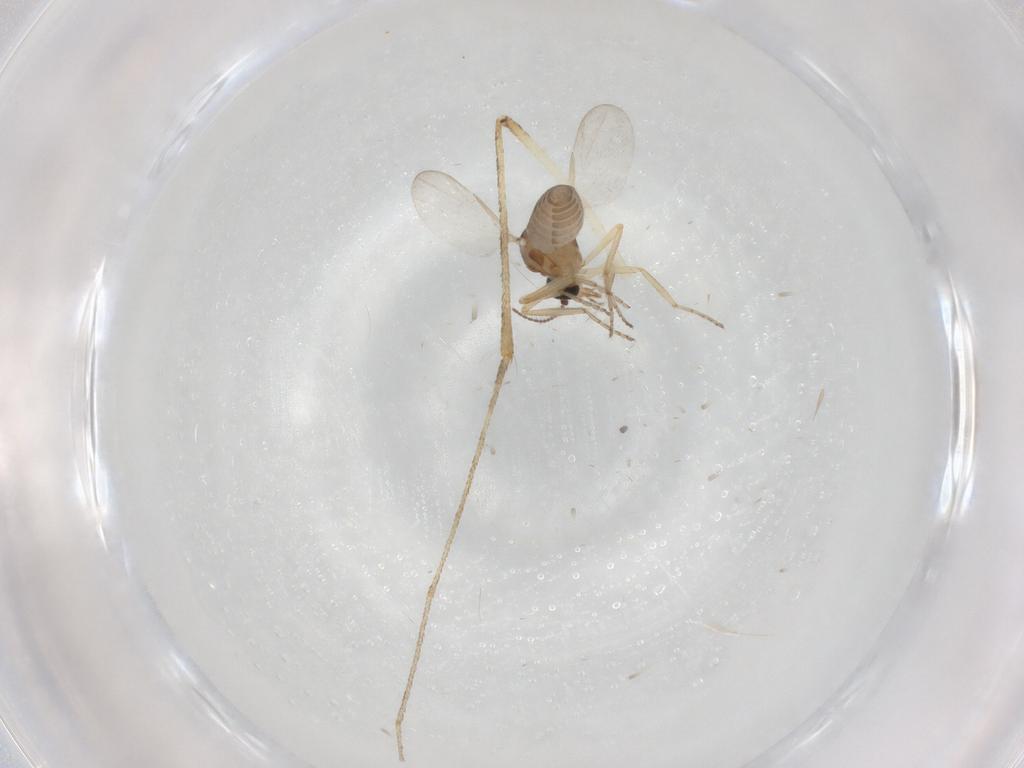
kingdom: Animalia
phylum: Arthropoda
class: Insecta
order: Diptera
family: Culicidae
